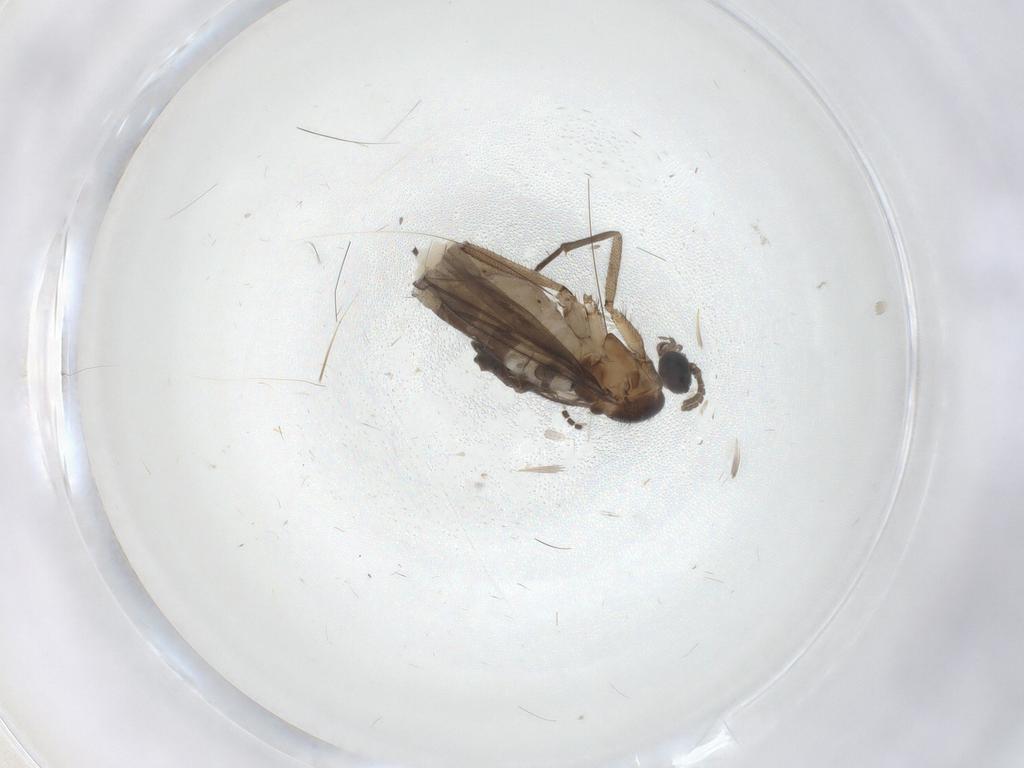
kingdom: Animalia
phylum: Arthropoda
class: Insecta
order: Diptera
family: Sciaridae
